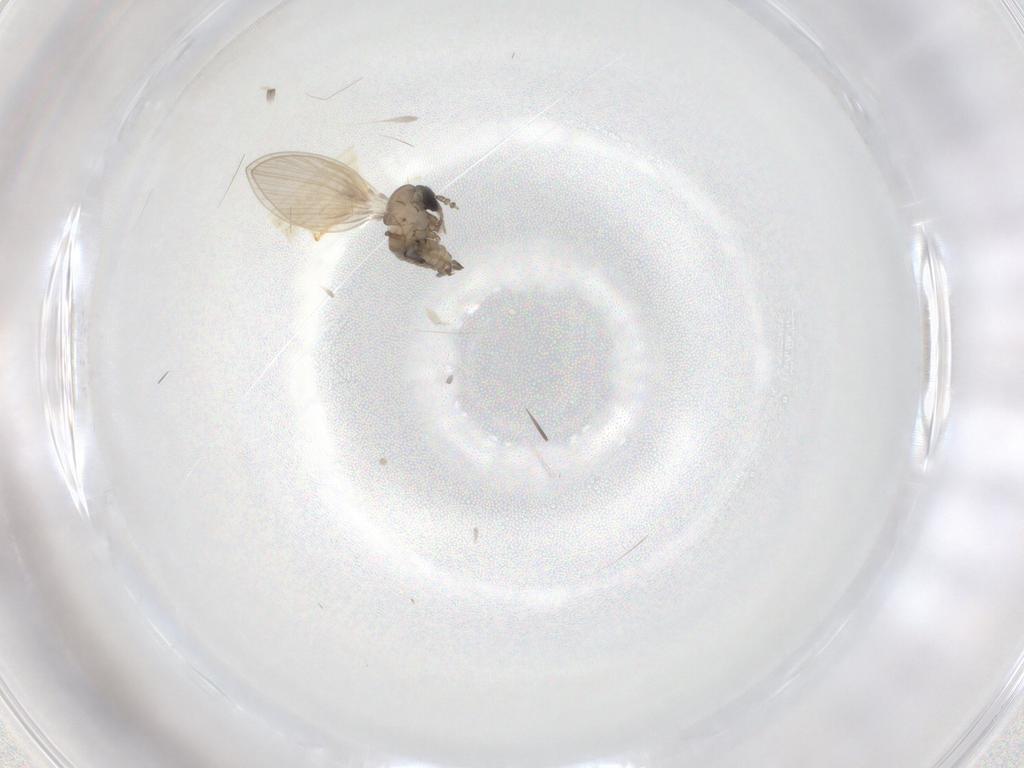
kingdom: Animalia
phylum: Arthropoda
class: Insecta
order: Diptera
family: Psychodidae
